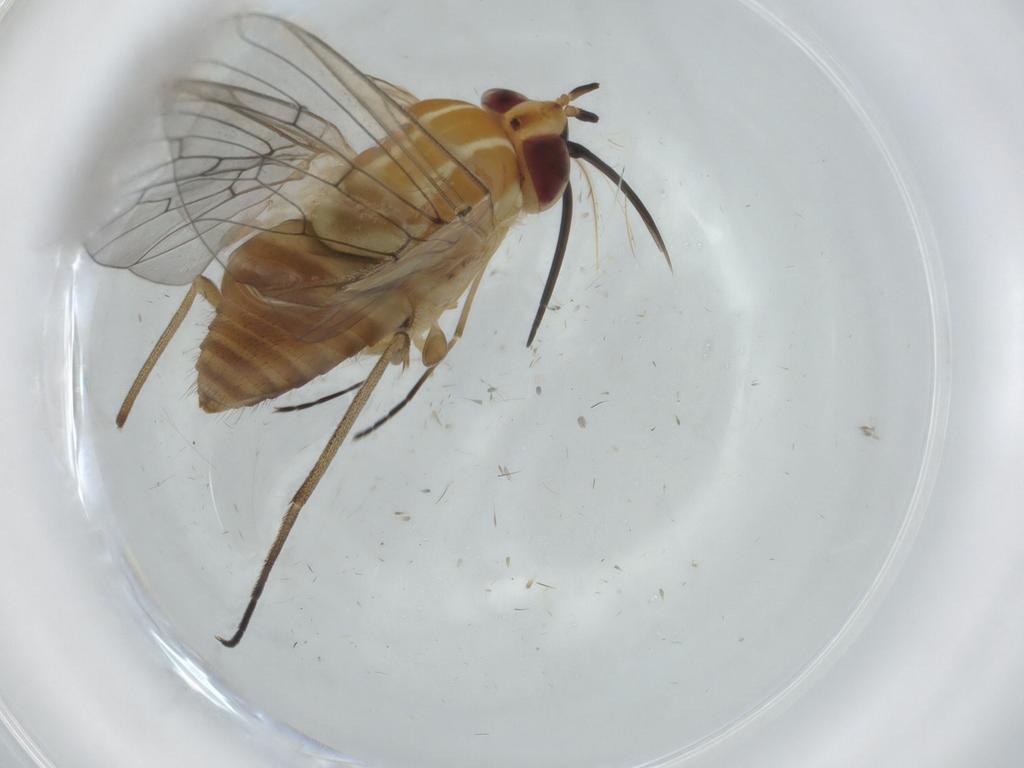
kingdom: Animalia
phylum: Arthropoda
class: Insecta
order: Diptera
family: Bombyliidae
